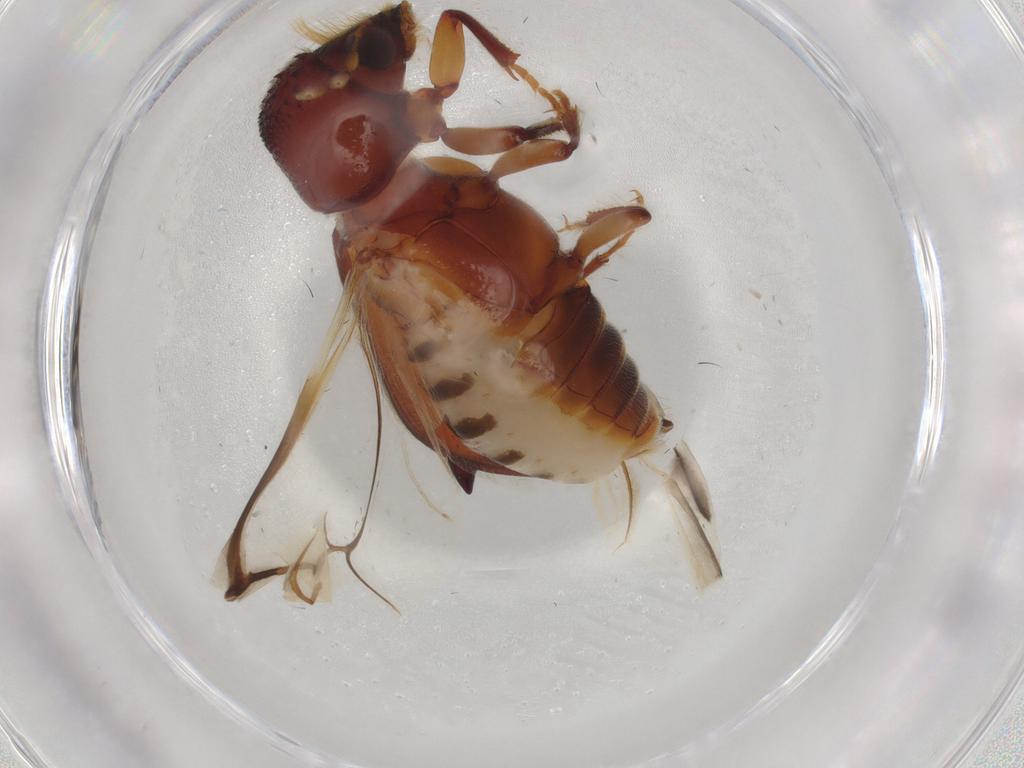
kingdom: Animalia
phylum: Arthropoda
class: Insecta
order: Coleoptera
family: Bostrichidae
